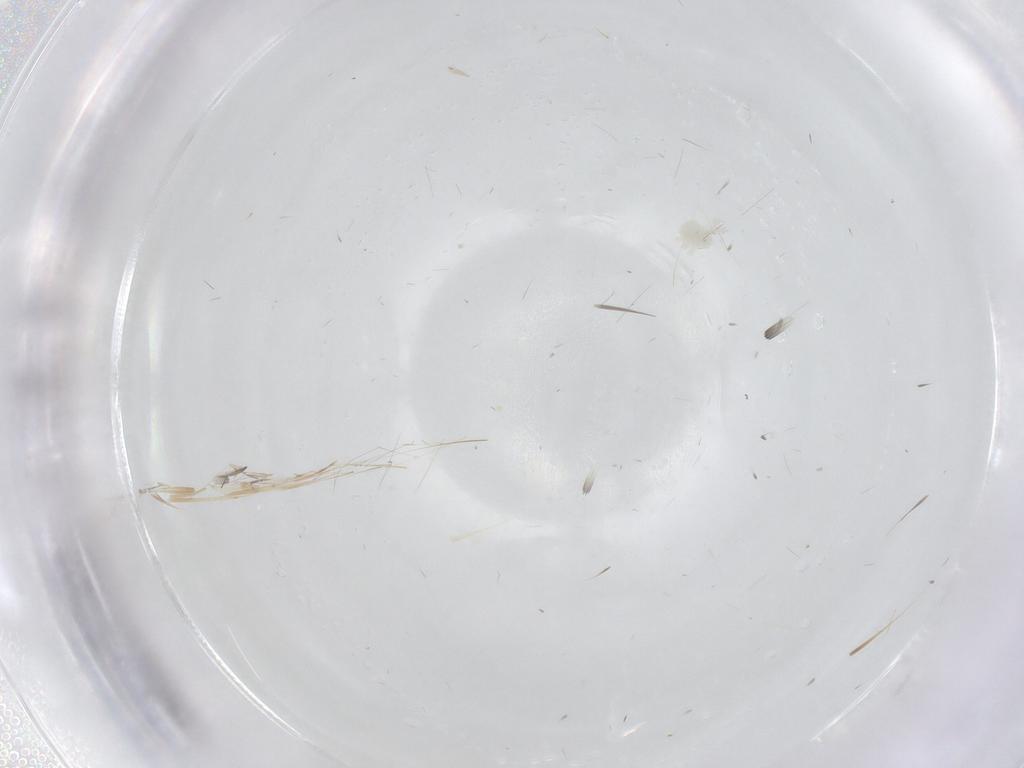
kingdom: Animalia
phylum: Arthropoda
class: Arachnida
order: Trombidiformes
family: Anystidae
